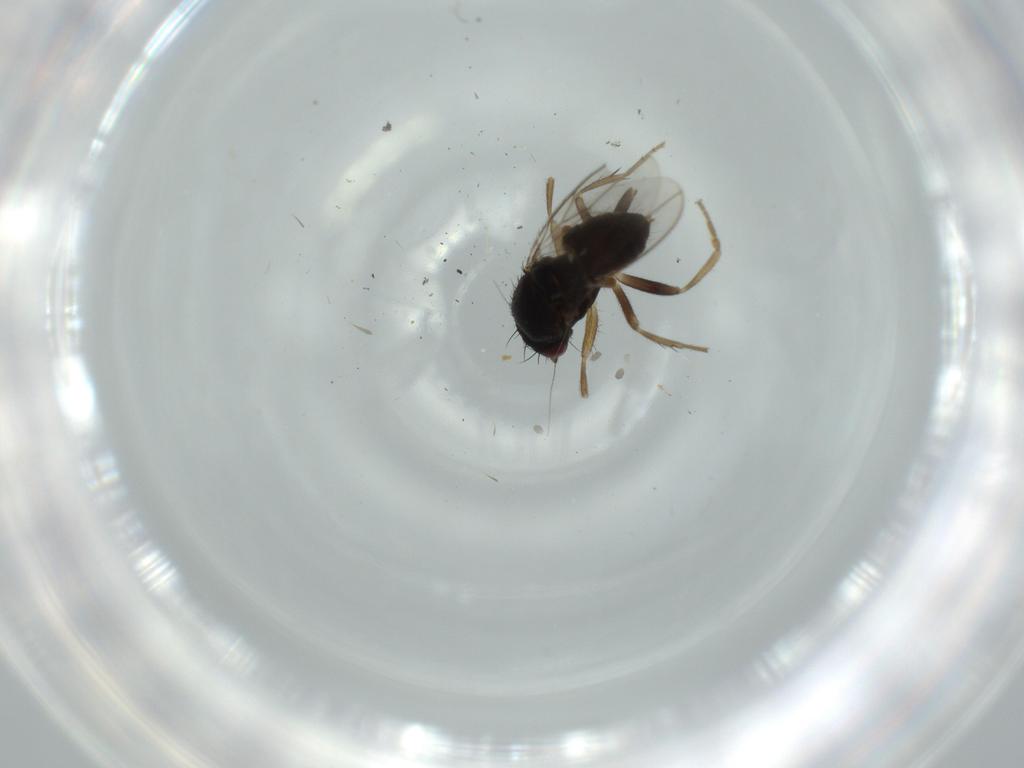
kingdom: Animalia
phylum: Arthropoda
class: Insecta
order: Diptera
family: Sphaeroceridae
